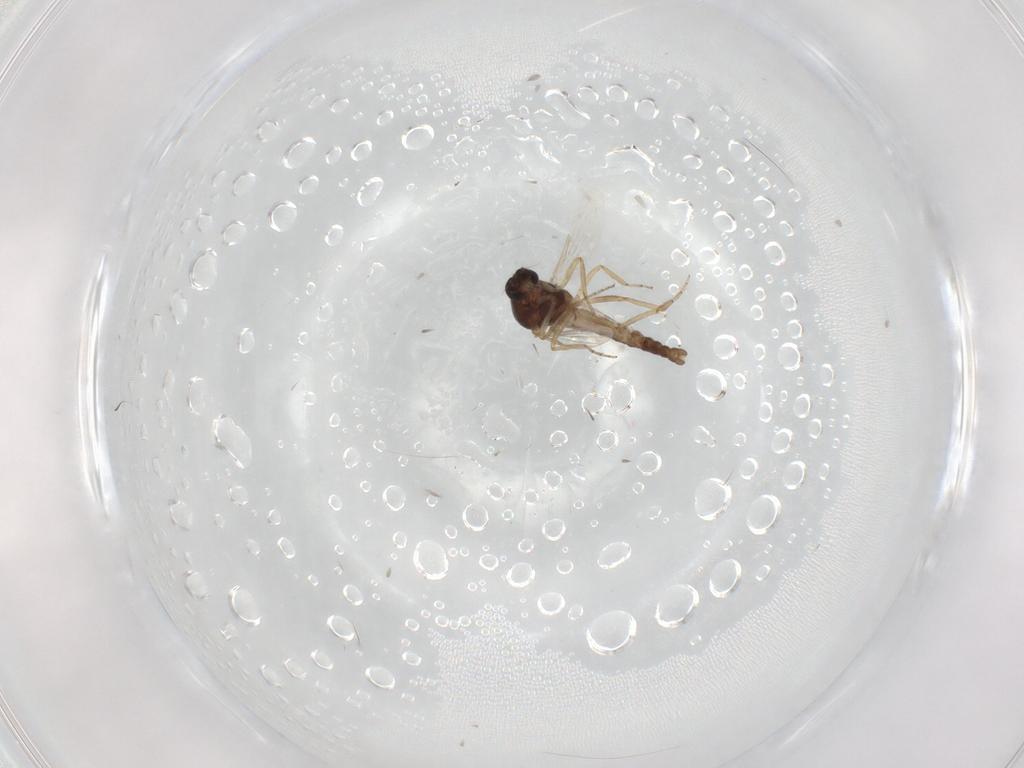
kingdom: Animalia
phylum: Arthropoda
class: Insecta
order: Diptera
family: Ceratopogonidae
